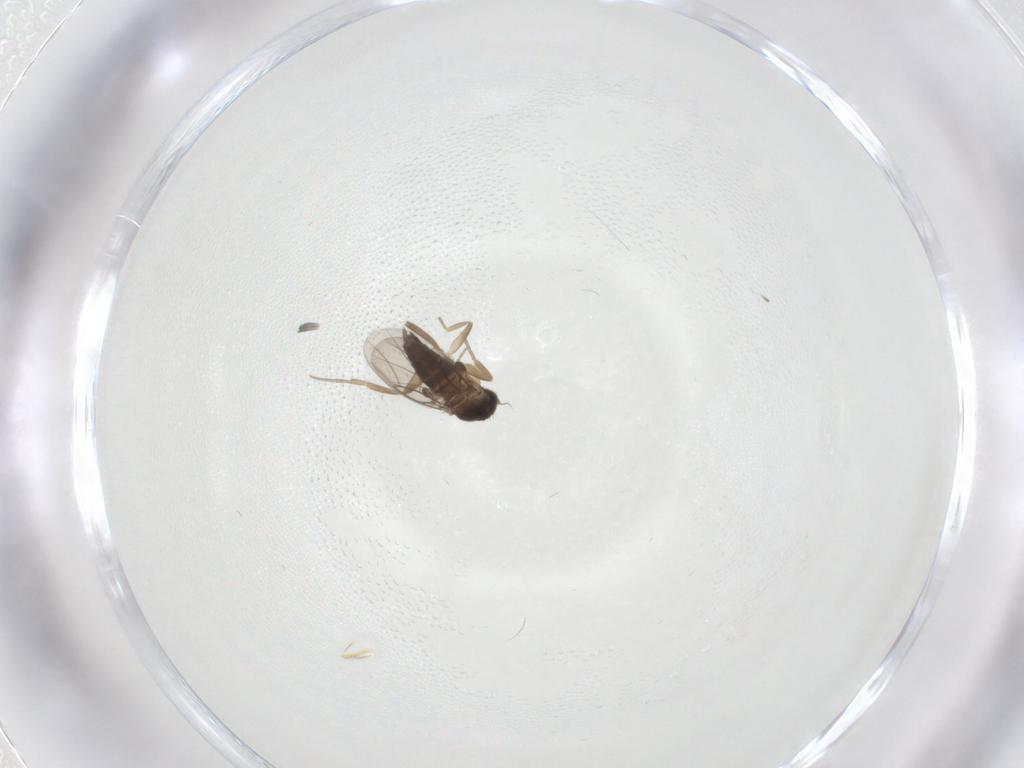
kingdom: Animalia
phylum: Arthropoda
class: Insecta
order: Diptera
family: Phoridae
